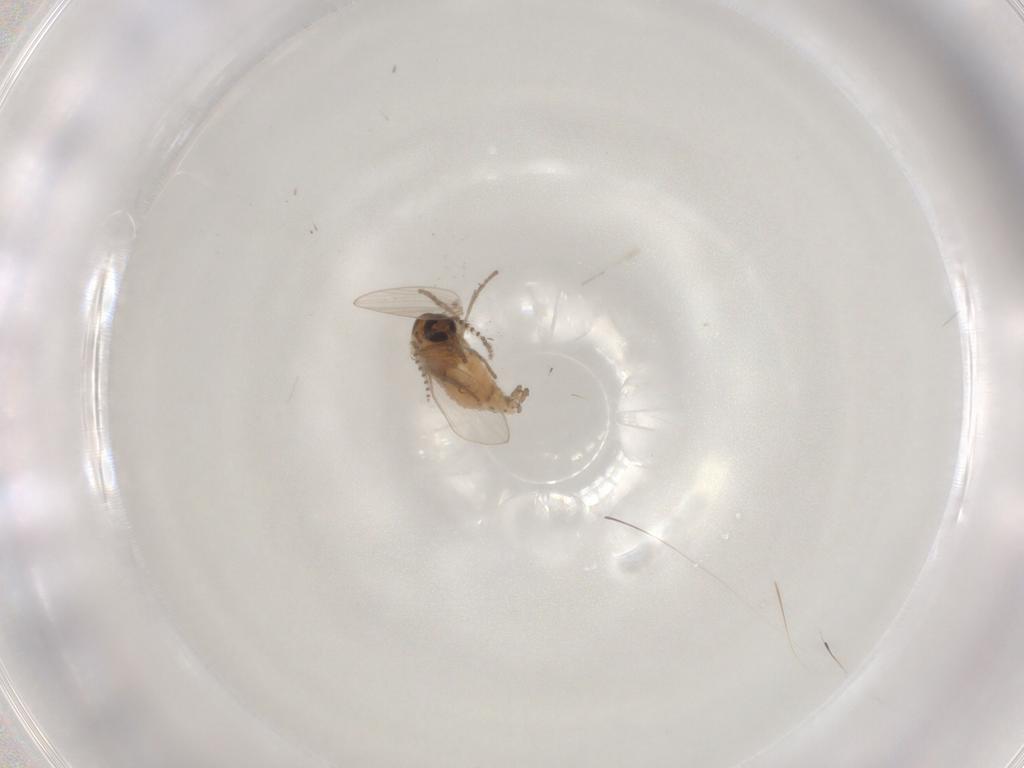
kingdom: Animalia
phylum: Arthropoda
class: Insecta
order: Diptera
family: Psychodidae
